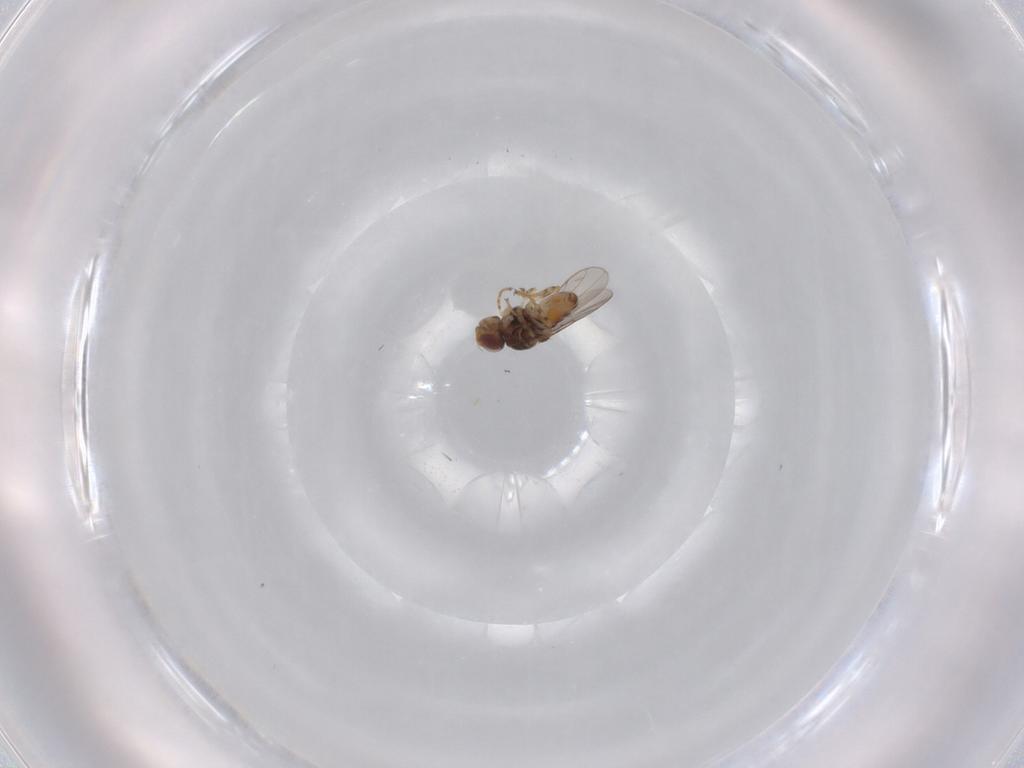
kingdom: Animalia
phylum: Arthropoda
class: Insecta
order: Diptera
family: Chloropidae
